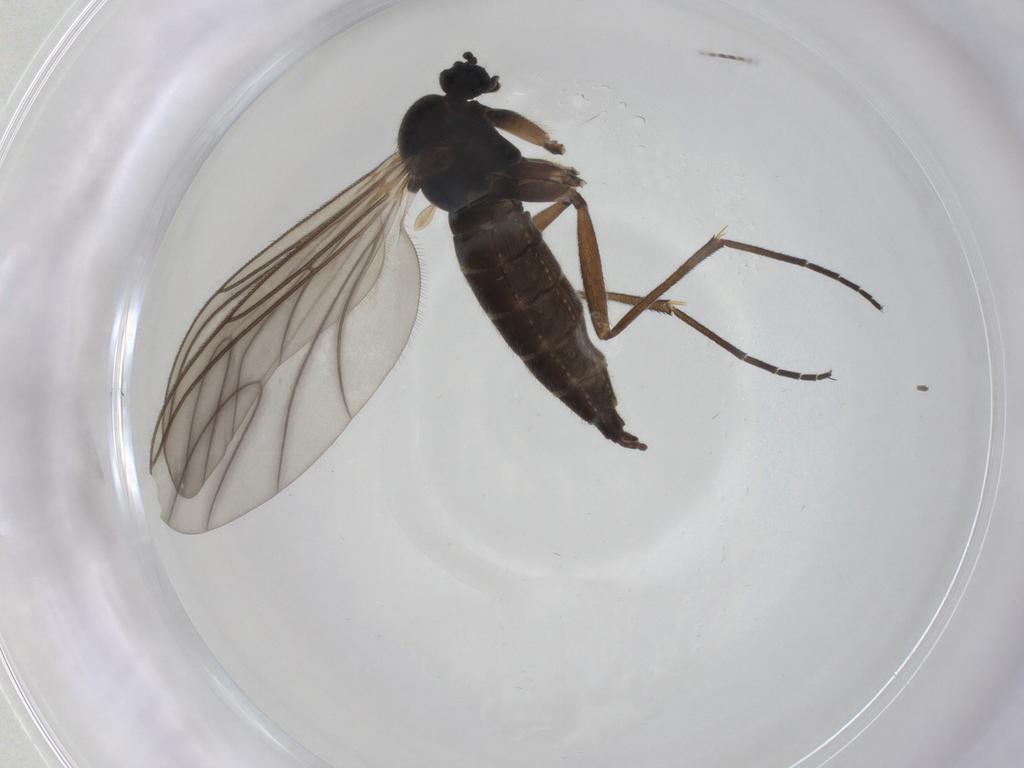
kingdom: Animalia
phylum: Arthropoda
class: Insecta
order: Diptera
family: Sciaridae
